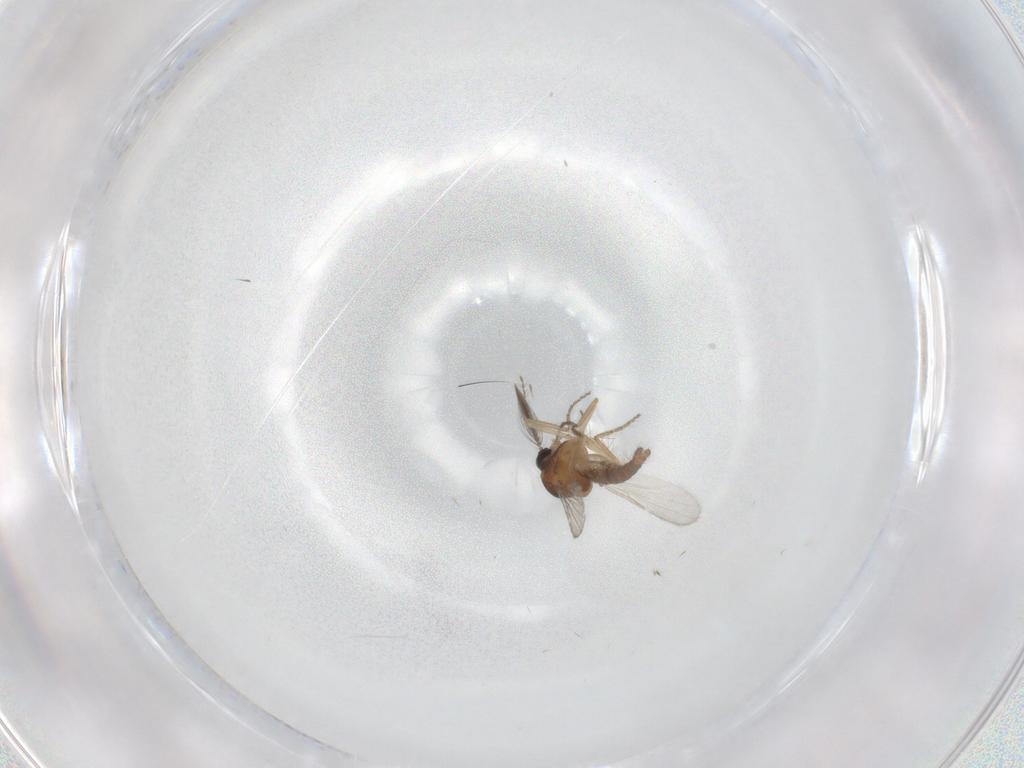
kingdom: Animalia
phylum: Arthropoda
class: Insecta
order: Diptera
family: Ceratopogonidae
